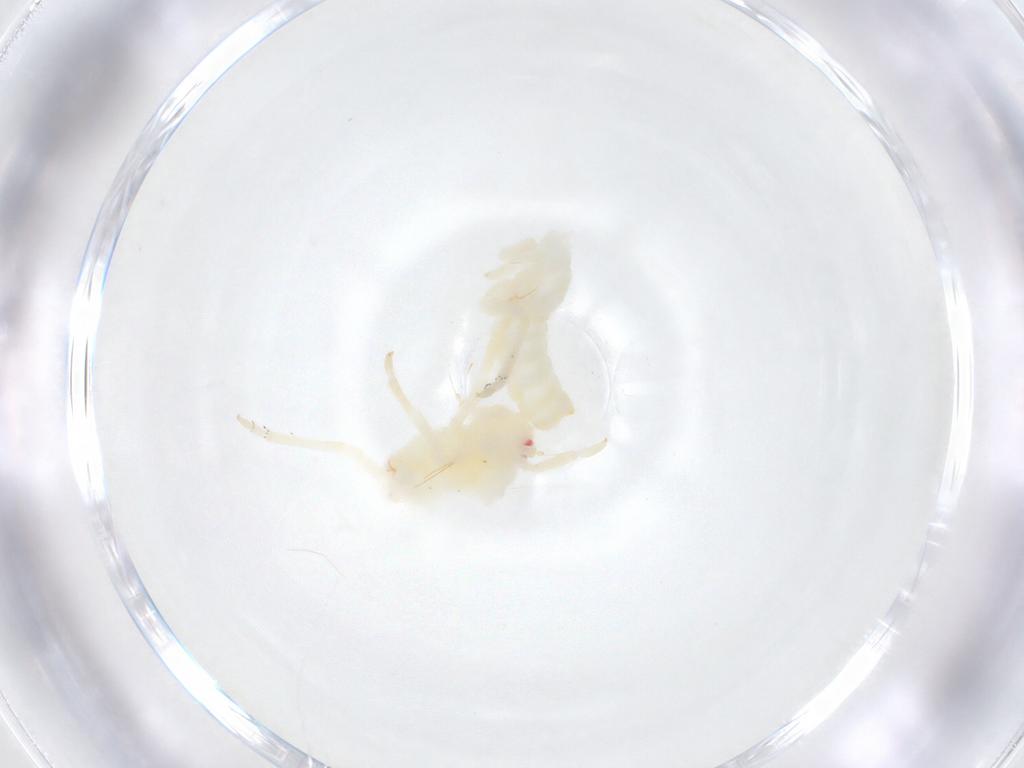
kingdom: Animalia
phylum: Arthropoda
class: Insecta
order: Hemiptera
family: Flatidae
